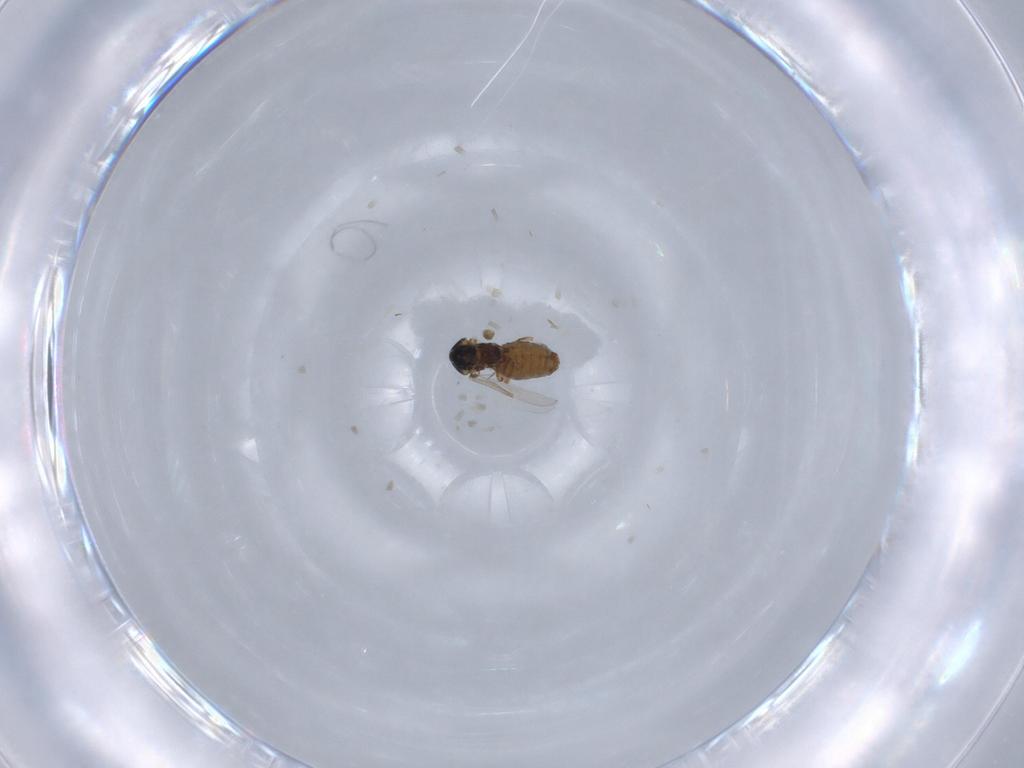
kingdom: Animalia
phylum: Arthropoda
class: Insecta
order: Diptera
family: Ceratopogonidae
